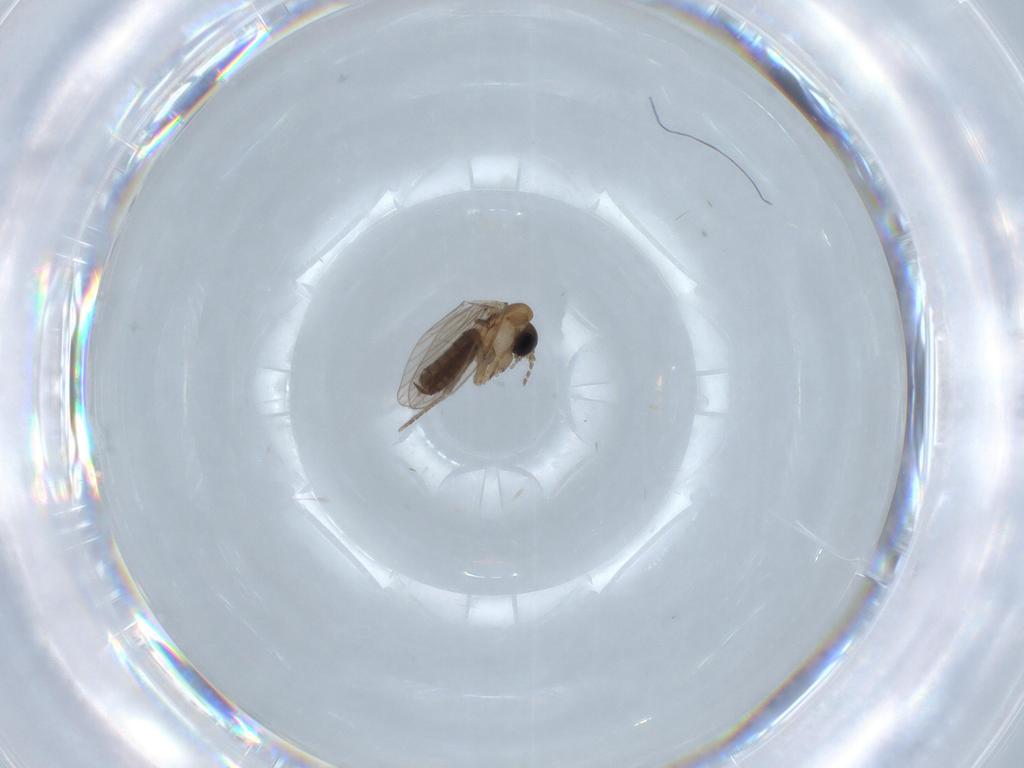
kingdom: Animalia
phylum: Arthropoda
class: Insecta
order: Diptera
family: Psychodidae
